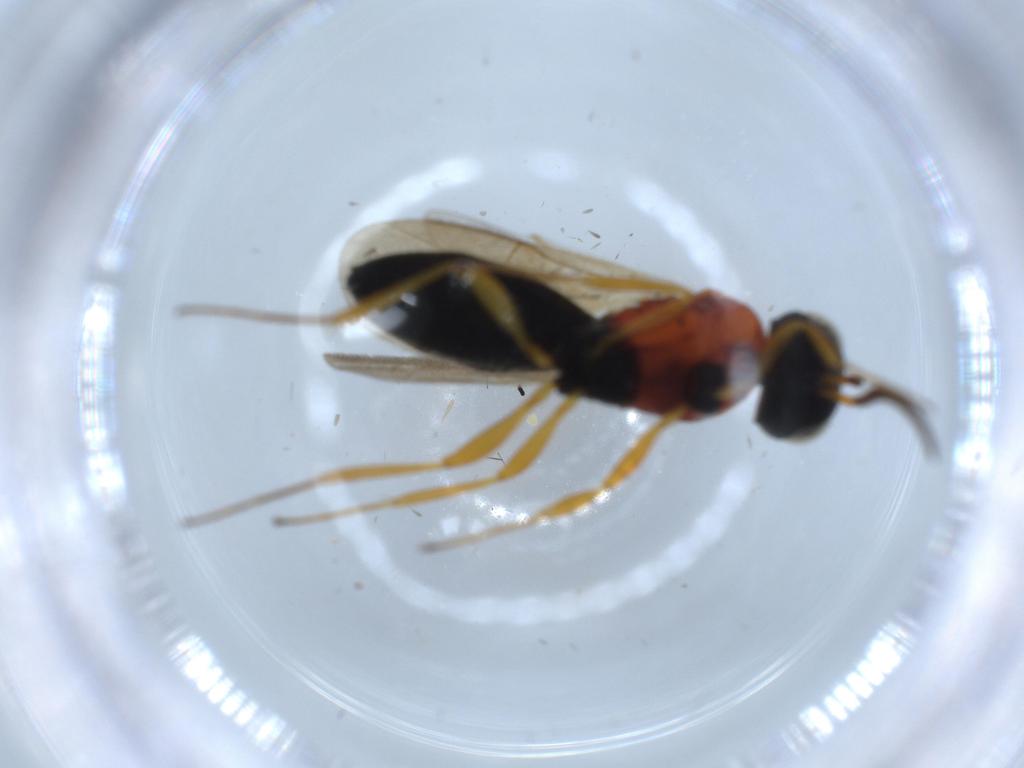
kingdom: Animalia
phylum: Arthropoda
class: Insecta
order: Hymenoptera
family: Scelionidae
